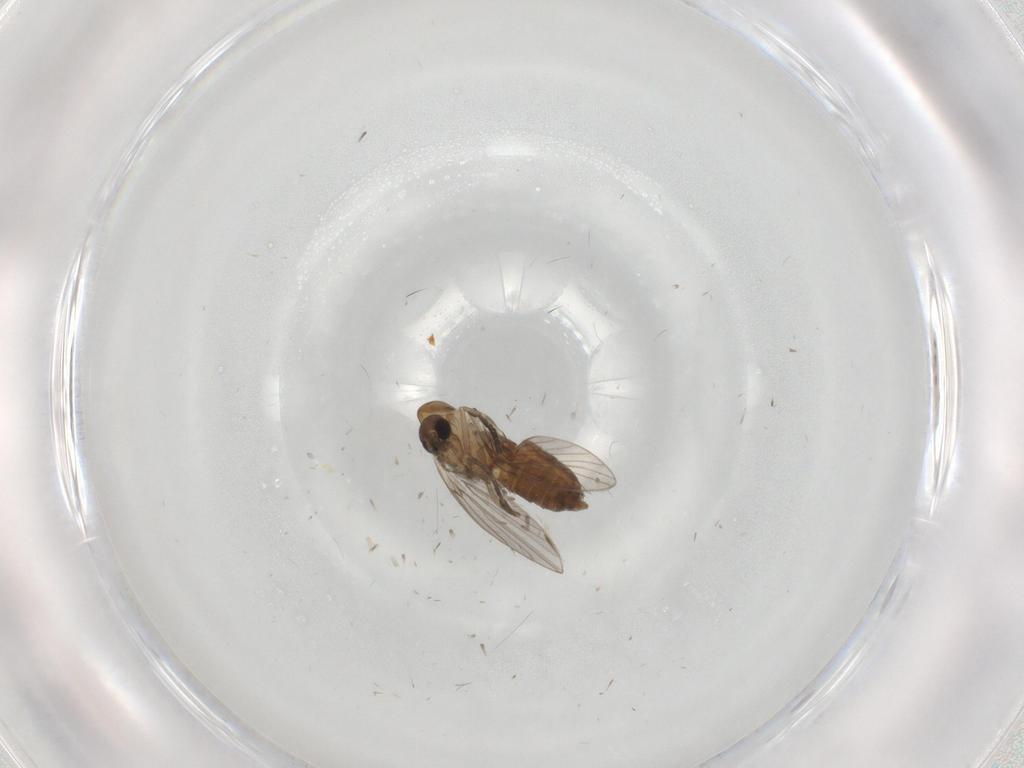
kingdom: Animalia
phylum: Arthropoda
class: Insecta
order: Diptera
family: Psychodidae
